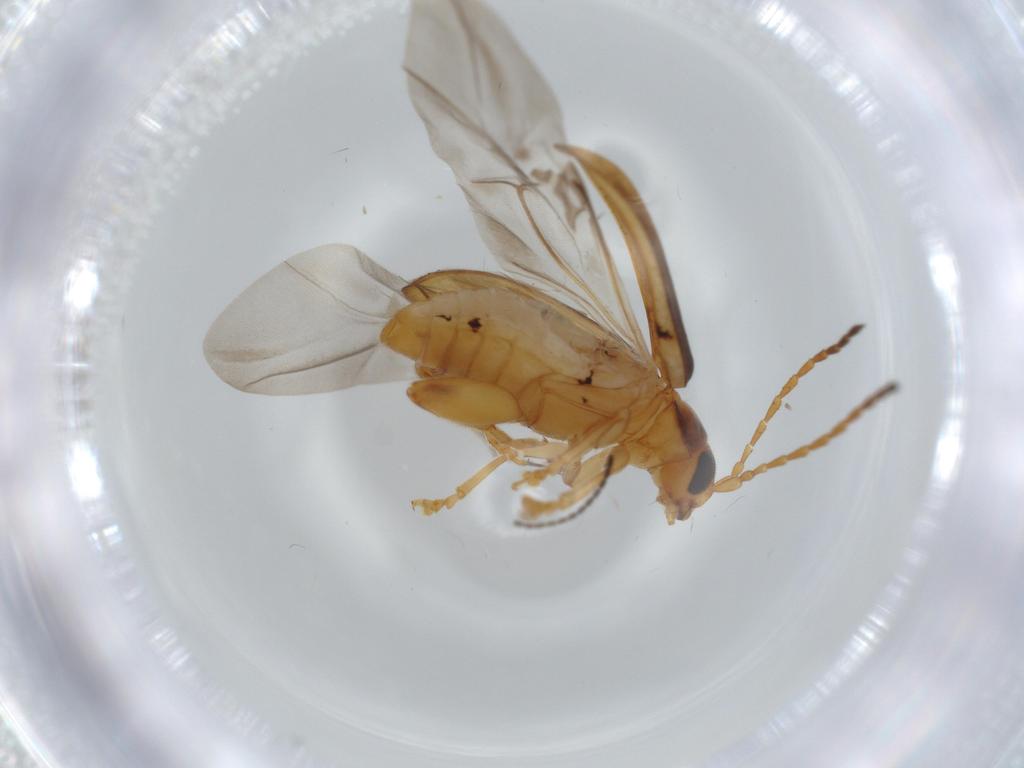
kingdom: Animalia
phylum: Arthropoda
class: Insecta
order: Coleoptera
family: Chrysomelidae
